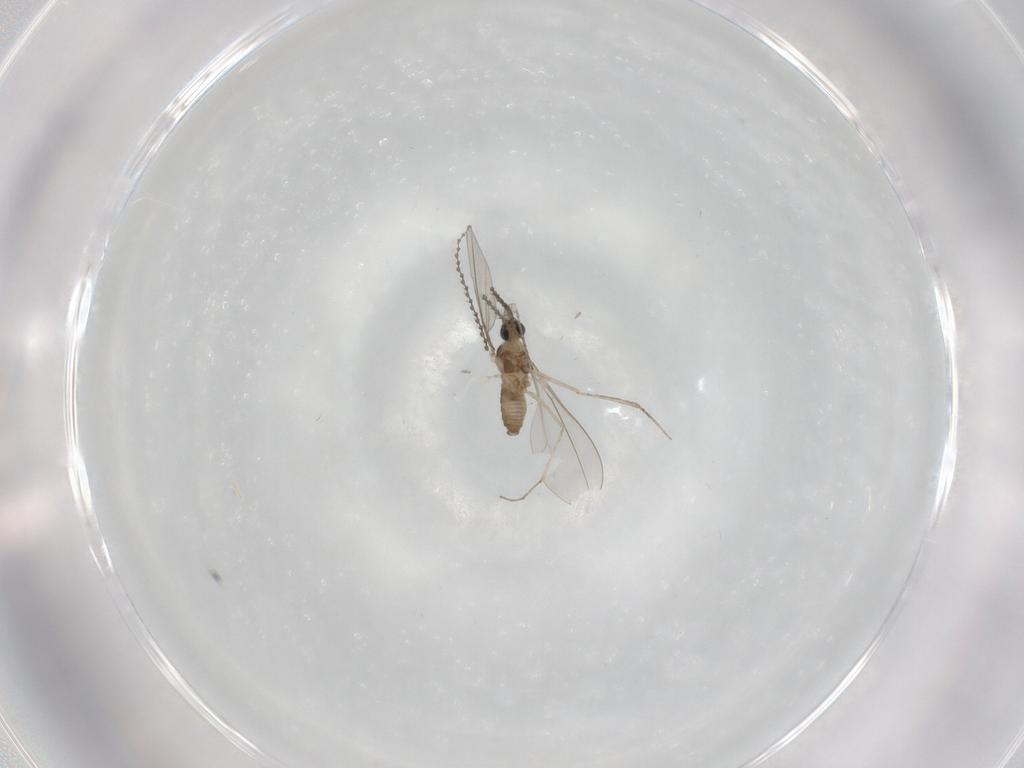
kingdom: Animalia
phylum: Arthropoda
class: Insecta
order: Diptera
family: Cecidomyiidae
